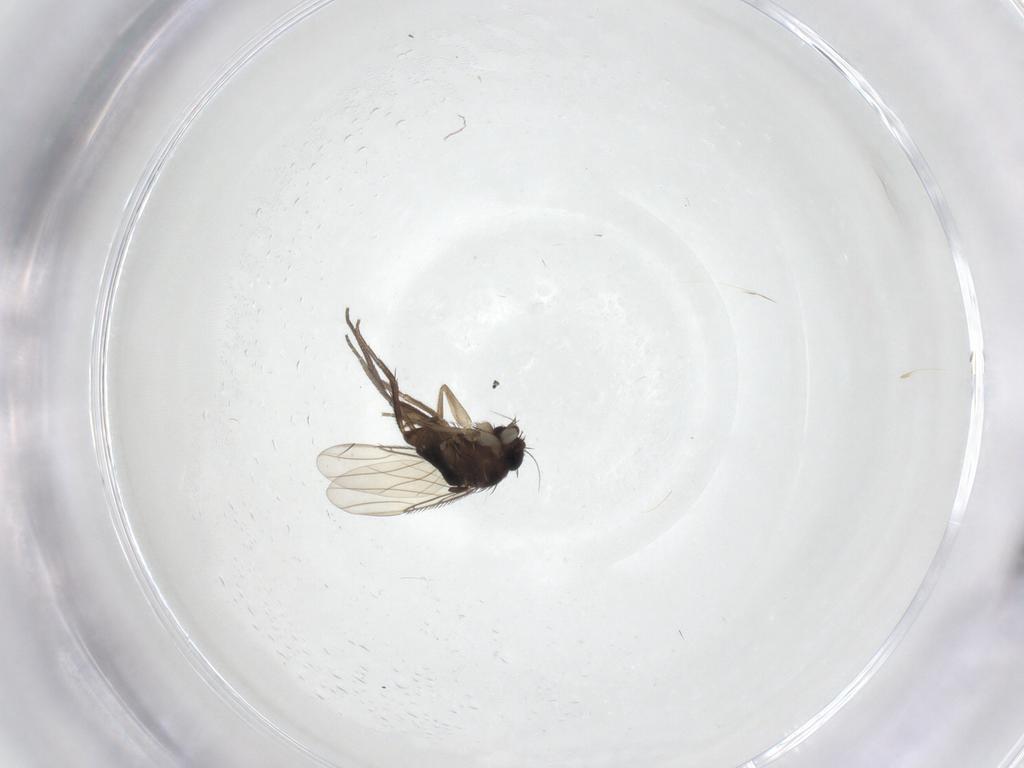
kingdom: Animalia
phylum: Arthropoda
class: Insecta
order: Diptera
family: Phoridae
